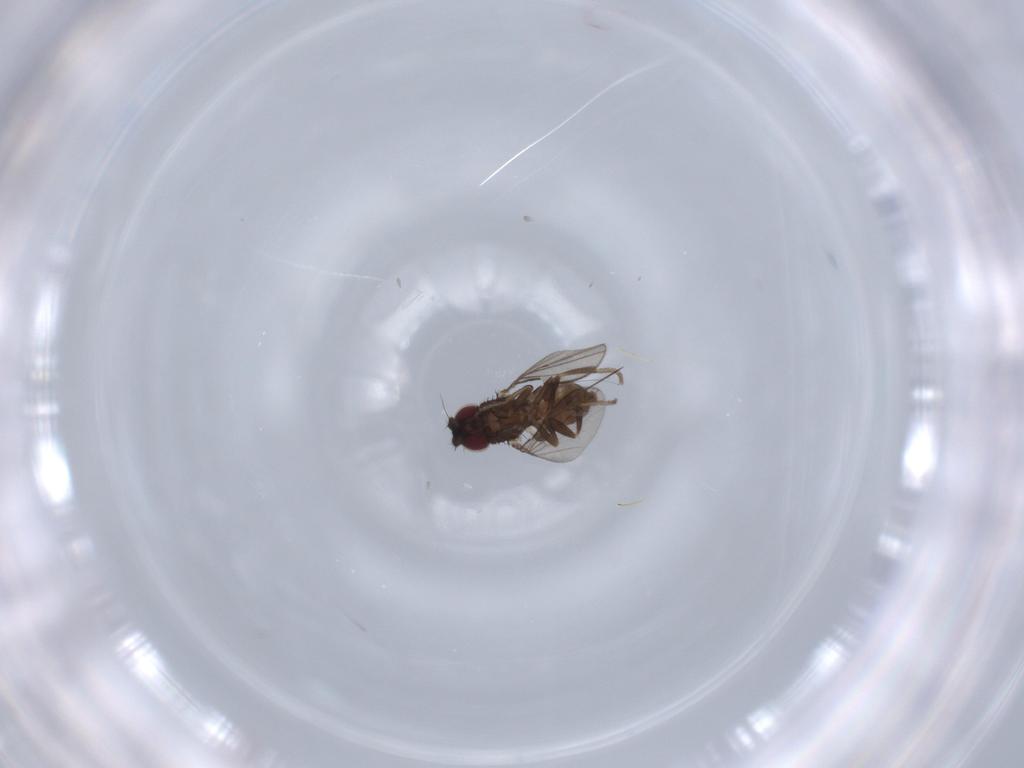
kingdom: Animalia
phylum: Arthropoda
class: Insecta
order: Diptera
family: Milichiidae
